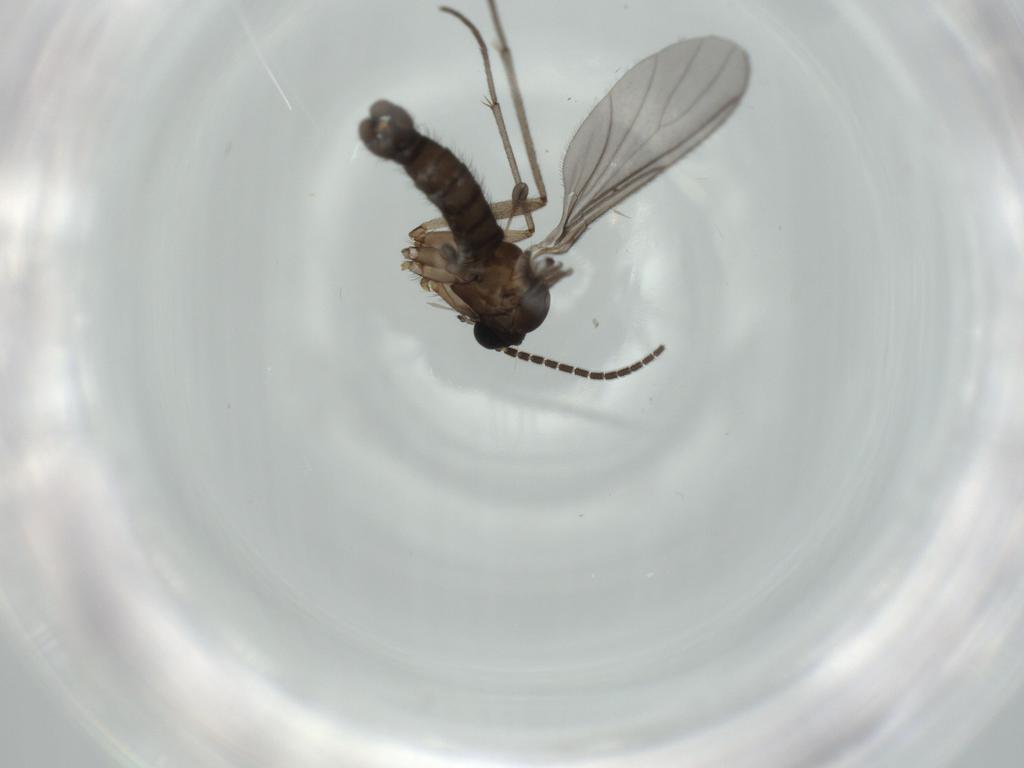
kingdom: Animalia
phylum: Arthropoda
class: Insecta
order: Diptera
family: Sciaridae
